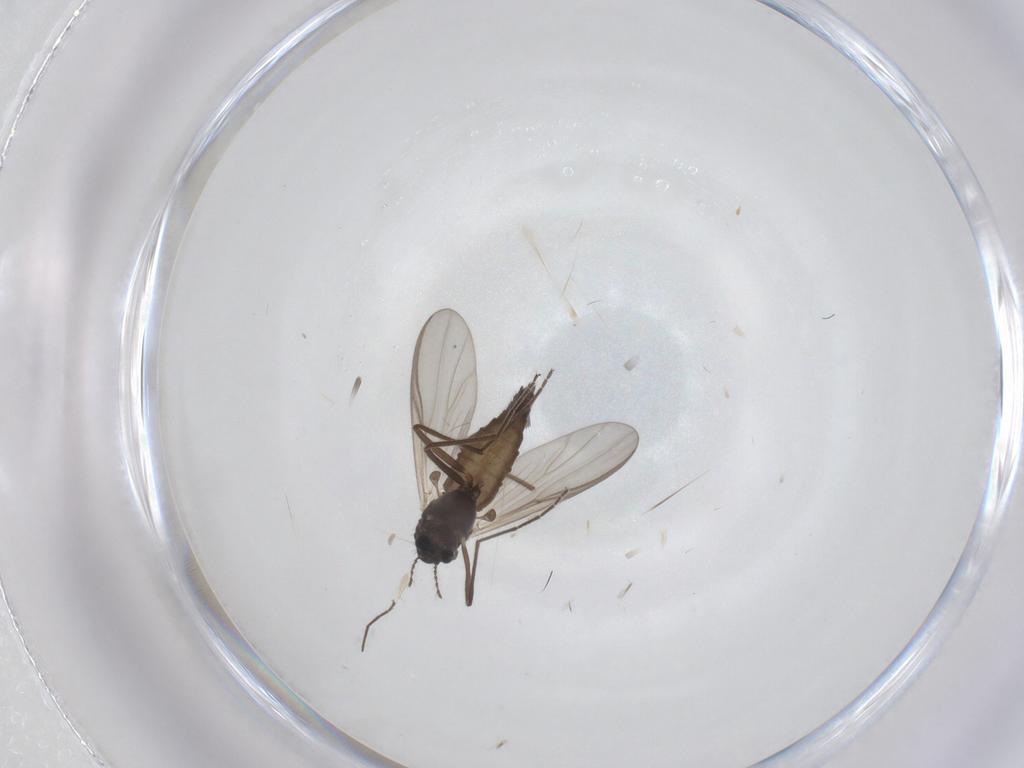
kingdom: Animalia
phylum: Arthropoda
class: Insecta
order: Diptera
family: Chironomidae
